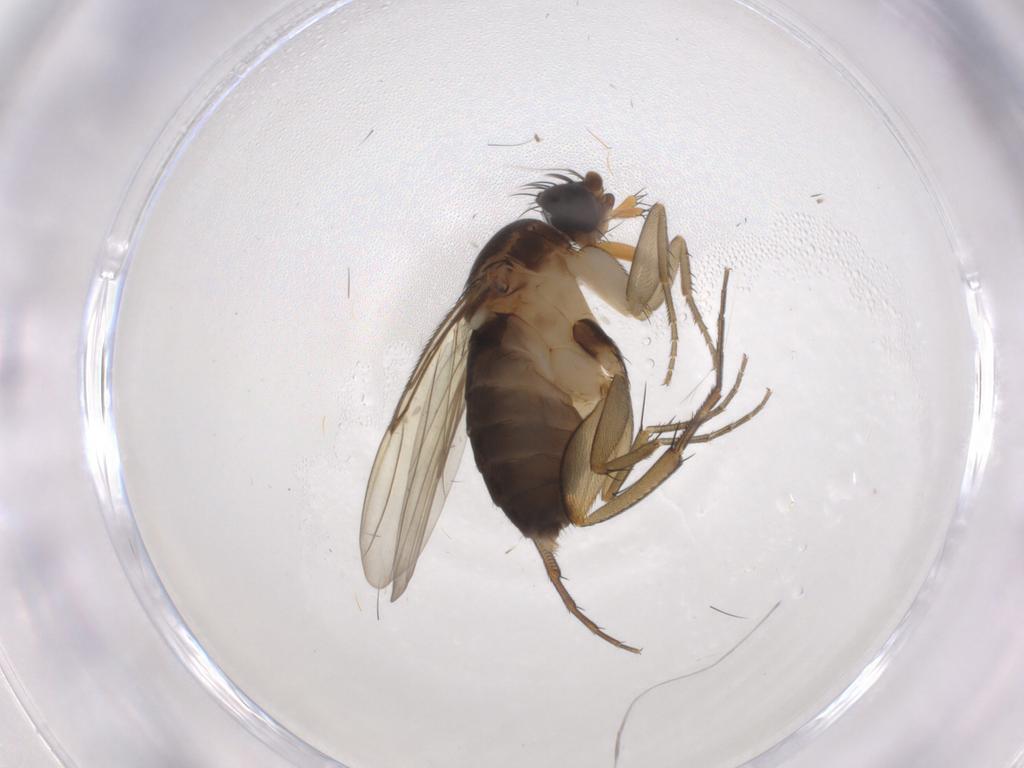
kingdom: Animalia
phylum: Arthropoda
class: Insecta
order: Diptera
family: Phoridae
